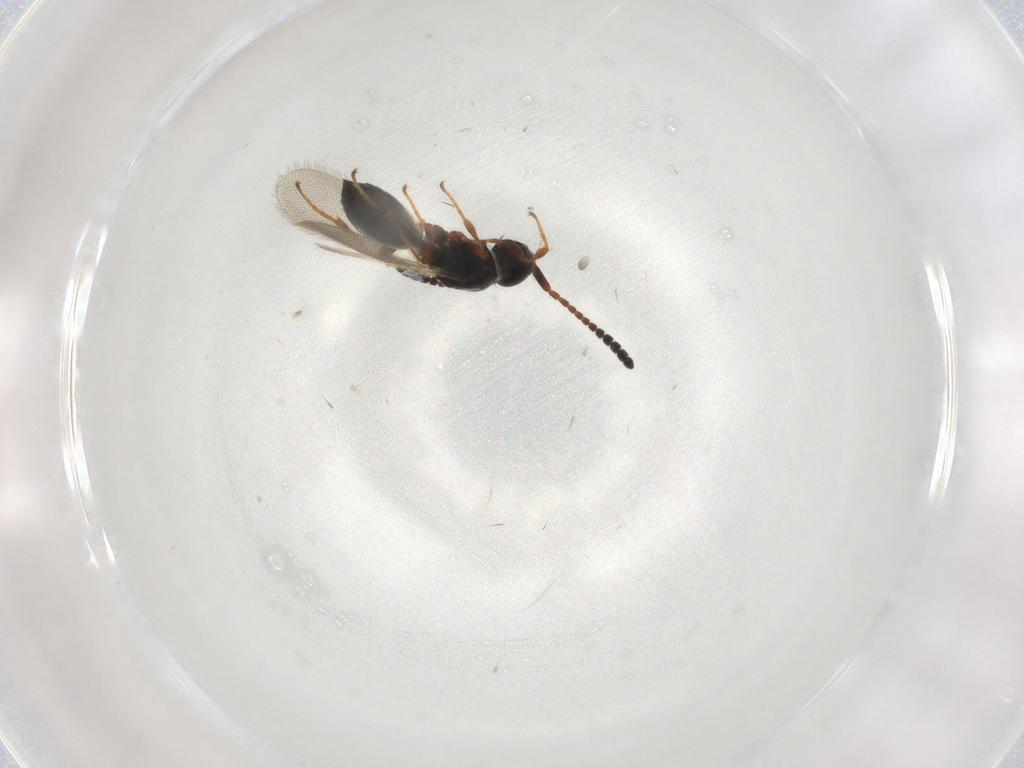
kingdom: Animalia
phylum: Arthropoda
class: Insecta
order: Hymenoptera
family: Diapriidae
